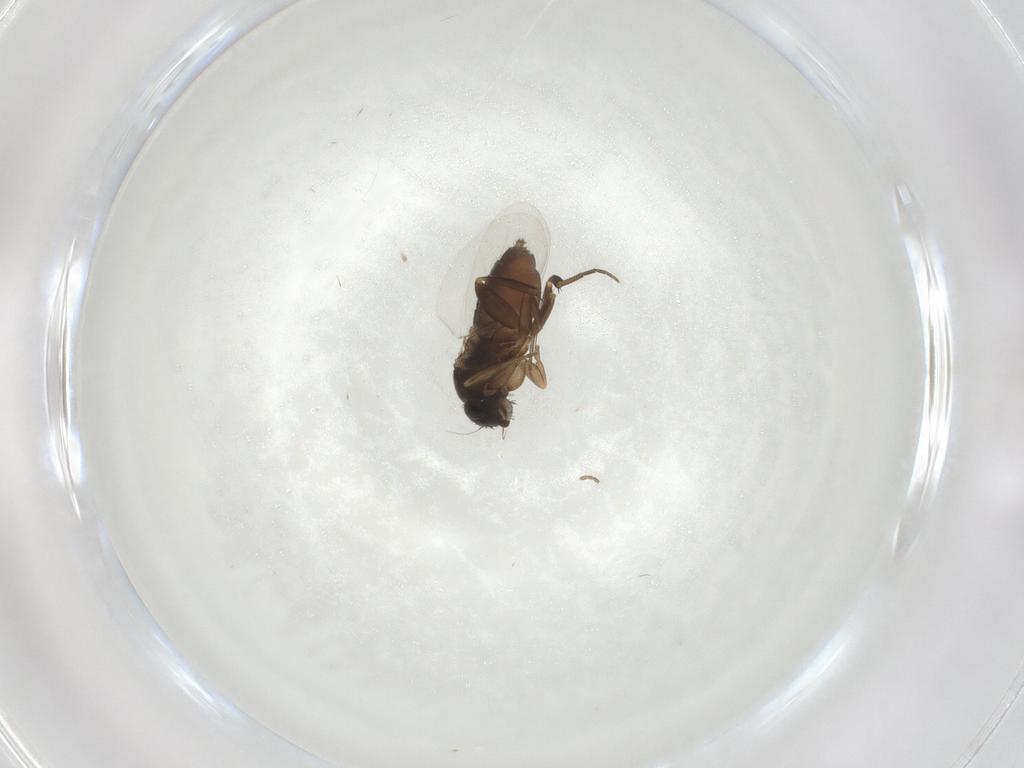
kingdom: Animalia
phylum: Arthropoda
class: Insecta
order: Diptera
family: Phoridae
